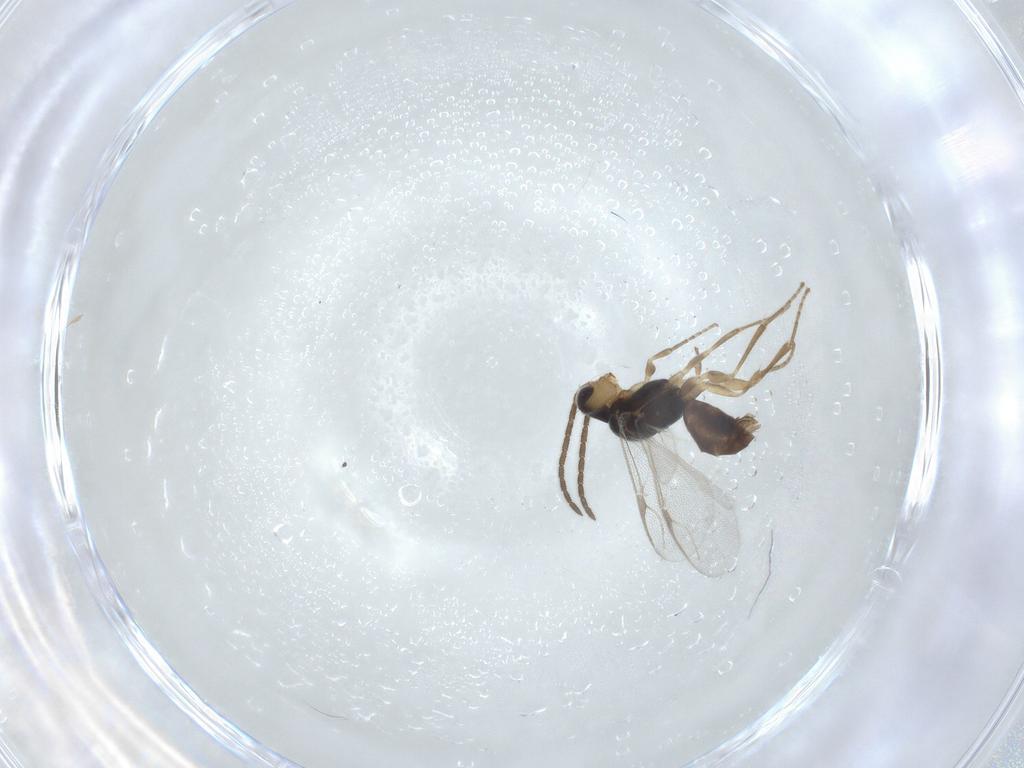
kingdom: Animalia
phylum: Arthropoda
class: Insecta
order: Hymenoptera
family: Dryinidae
